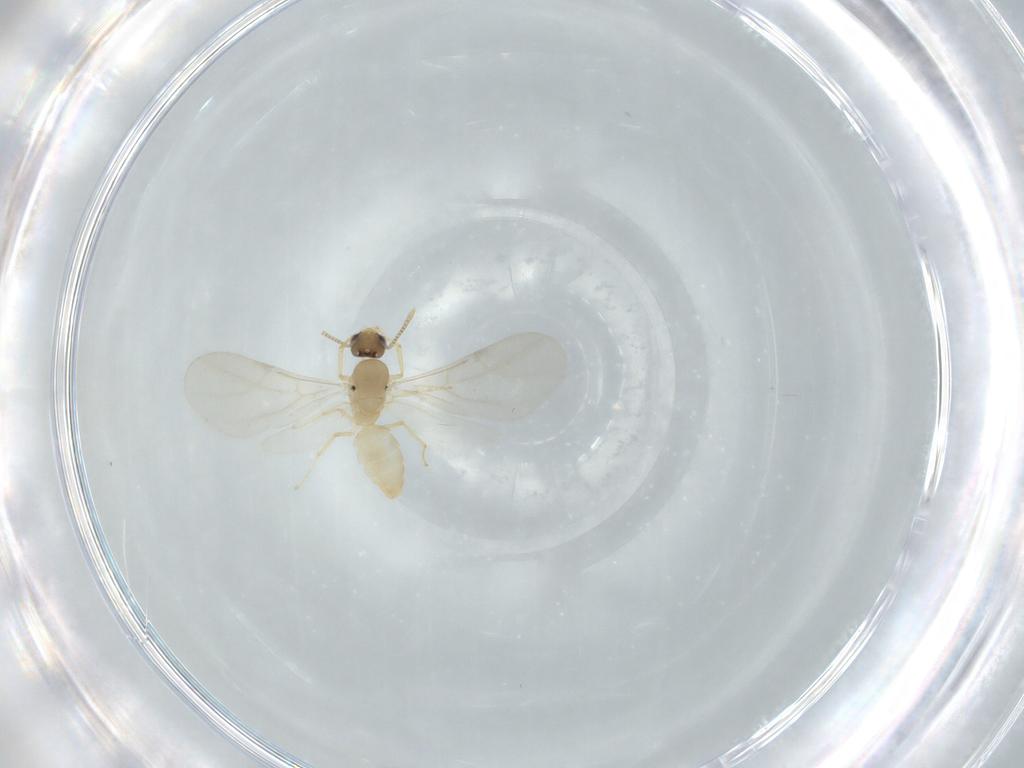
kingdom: Animalia
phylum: Arthropoda
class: Insecta
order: Hymenoptera
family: Formicidae
